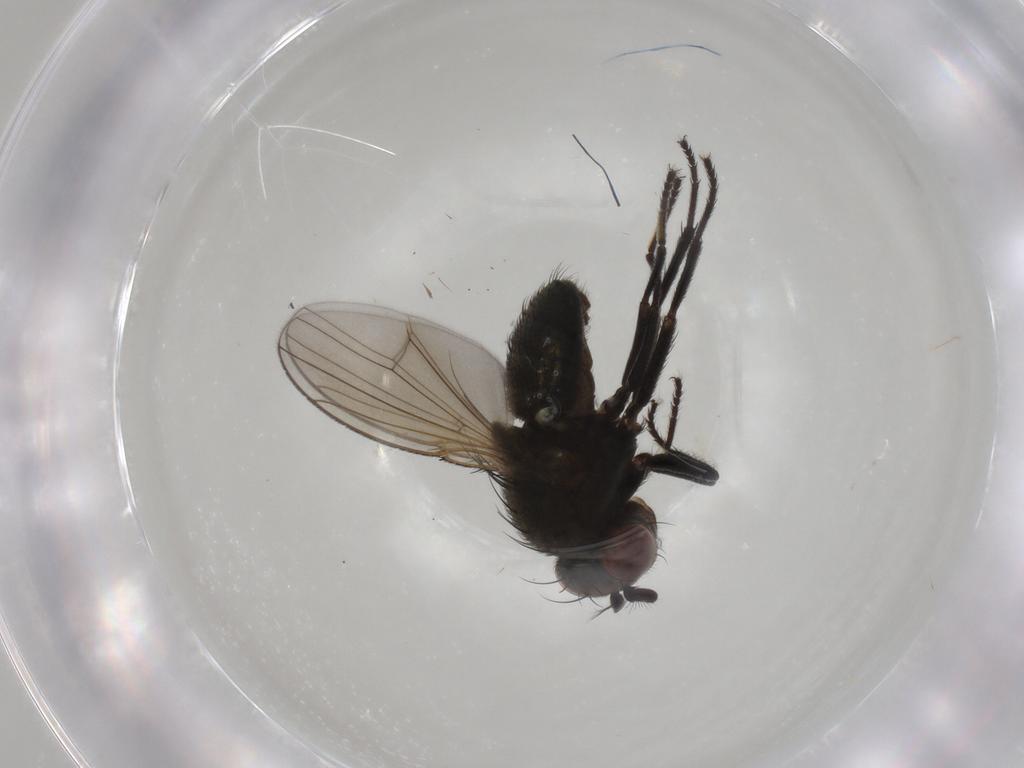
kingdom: Animalia
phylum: Arthropoda
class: Insecta
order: Diptera
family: Ephydridae
